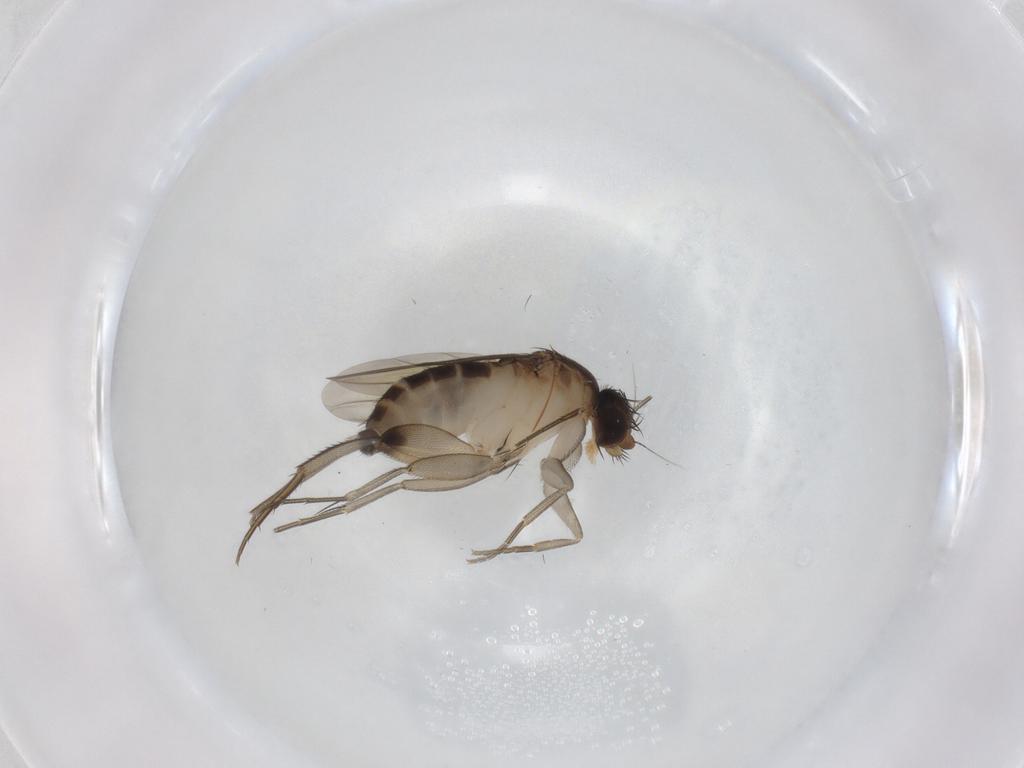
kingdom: Animalia
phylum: Arthropoda
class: Insecta
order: Diptera
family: Phoridae
